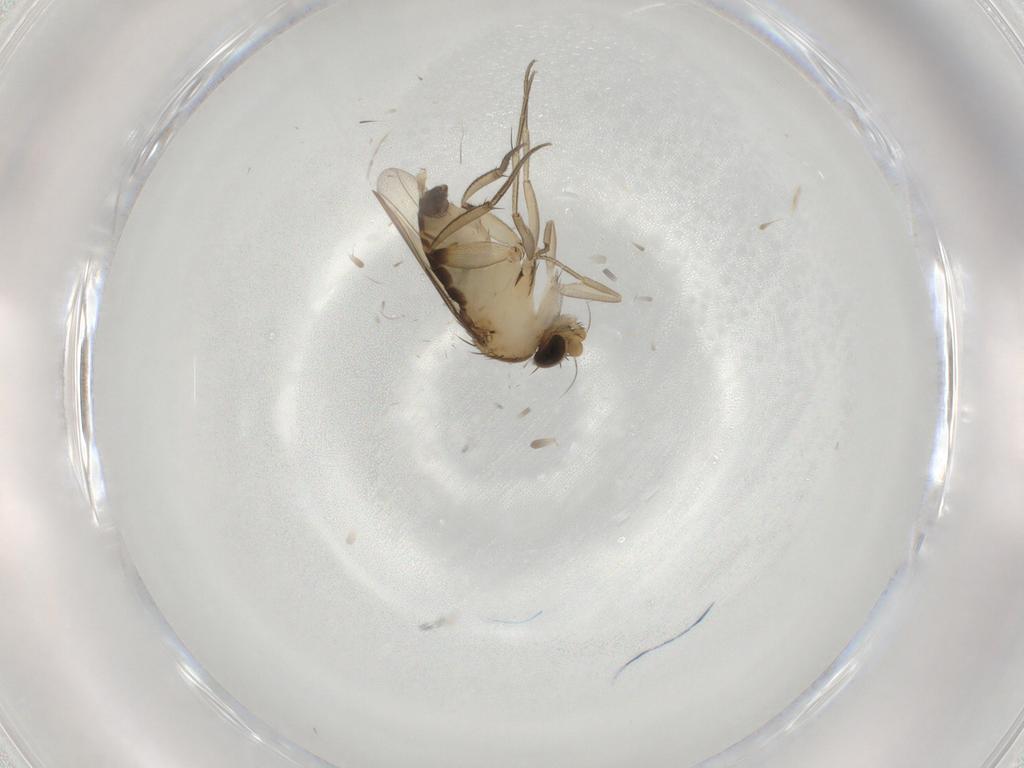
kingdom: Animalia
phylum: Arthropoda
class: Insecta
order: Diptera
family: Phoridae
